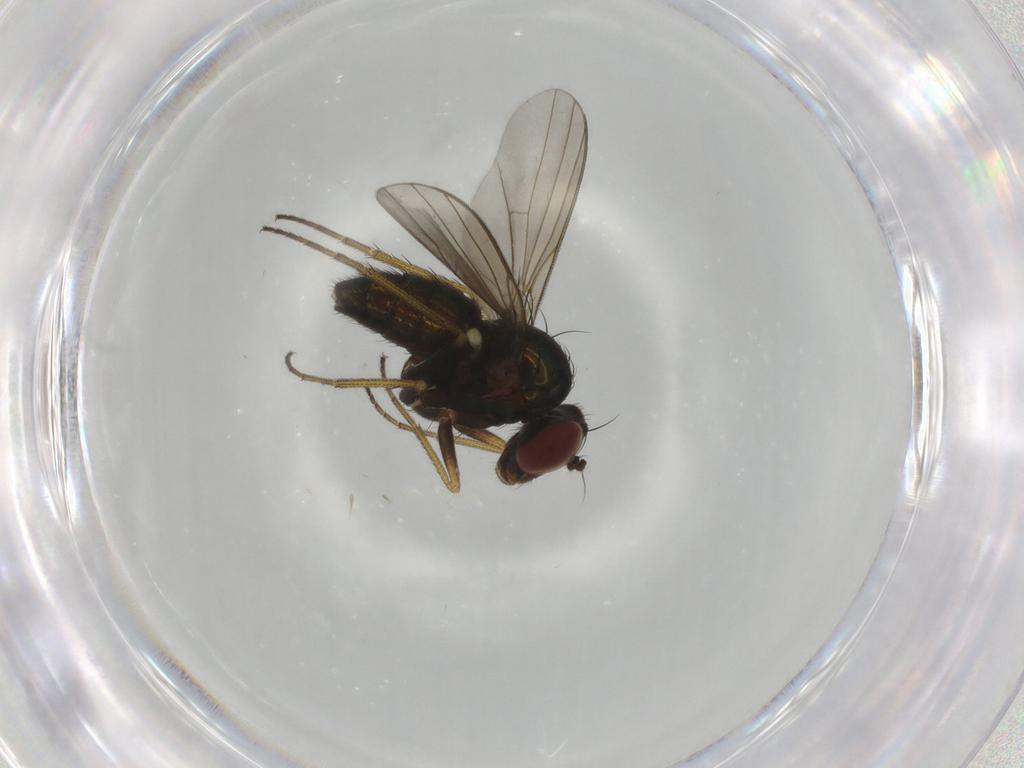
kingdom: Animalia
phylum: Arthropoda
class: Insecta
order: Diptera
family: Dolichopodidae
